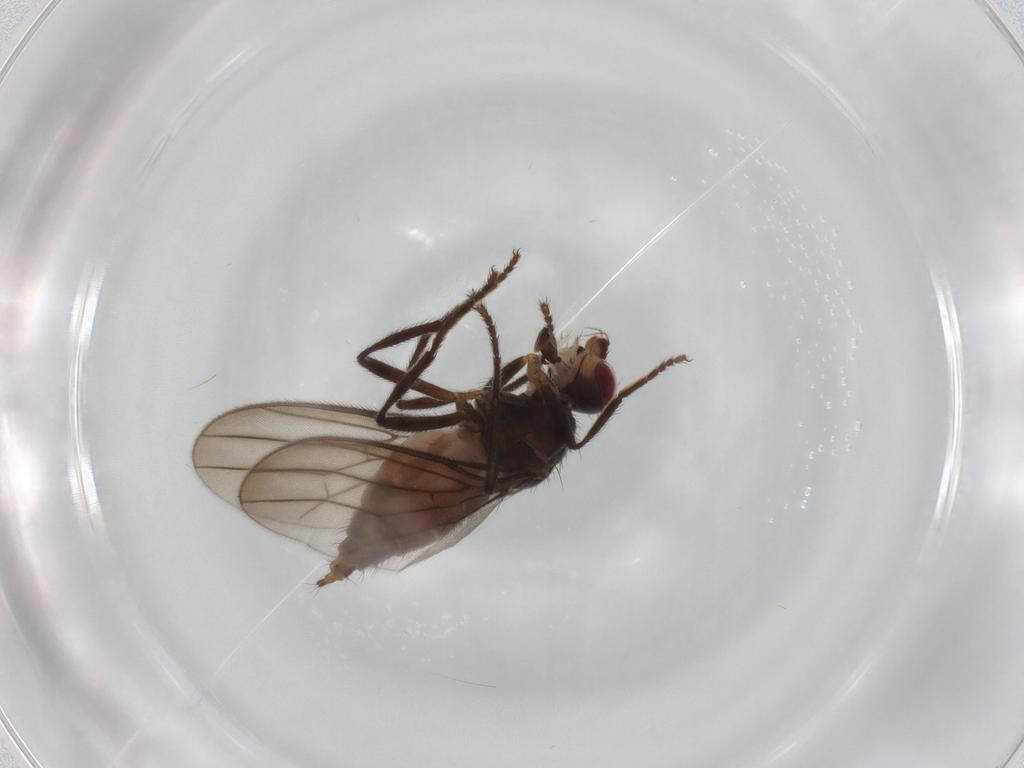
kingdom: Animalia
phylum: Arthropoda
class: Insecta
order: Diptera
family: Chloropidae
